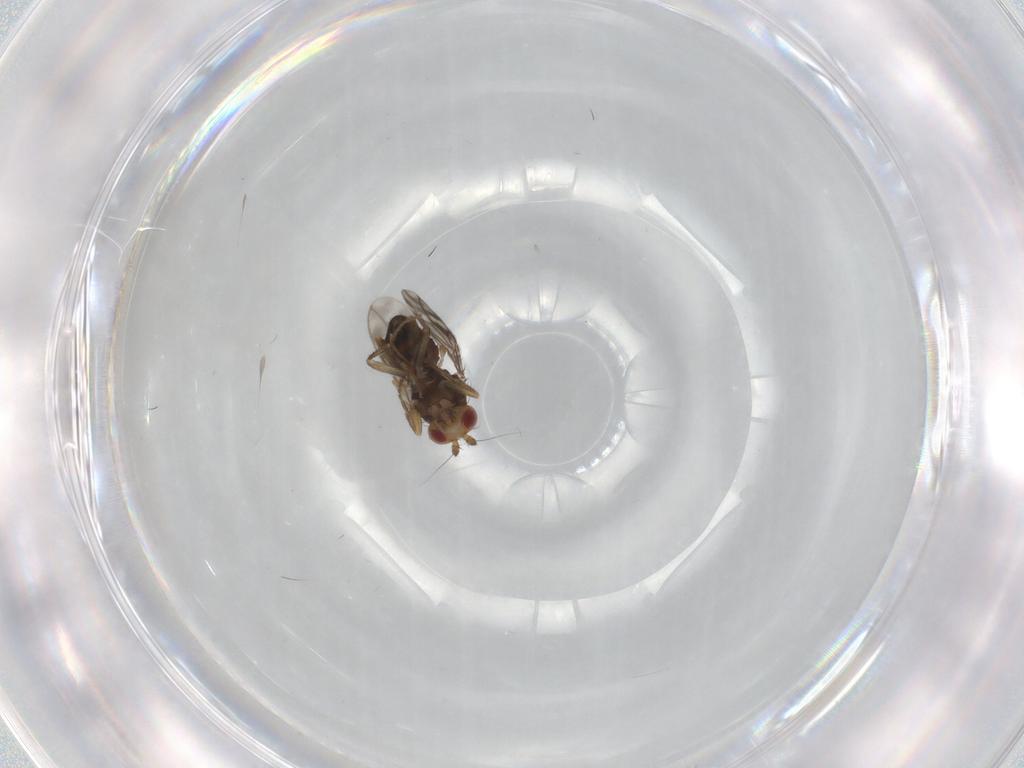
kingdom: Animalia
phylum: Arthropoda
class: Insecta
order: Diptera
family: Sphaeroceridae
